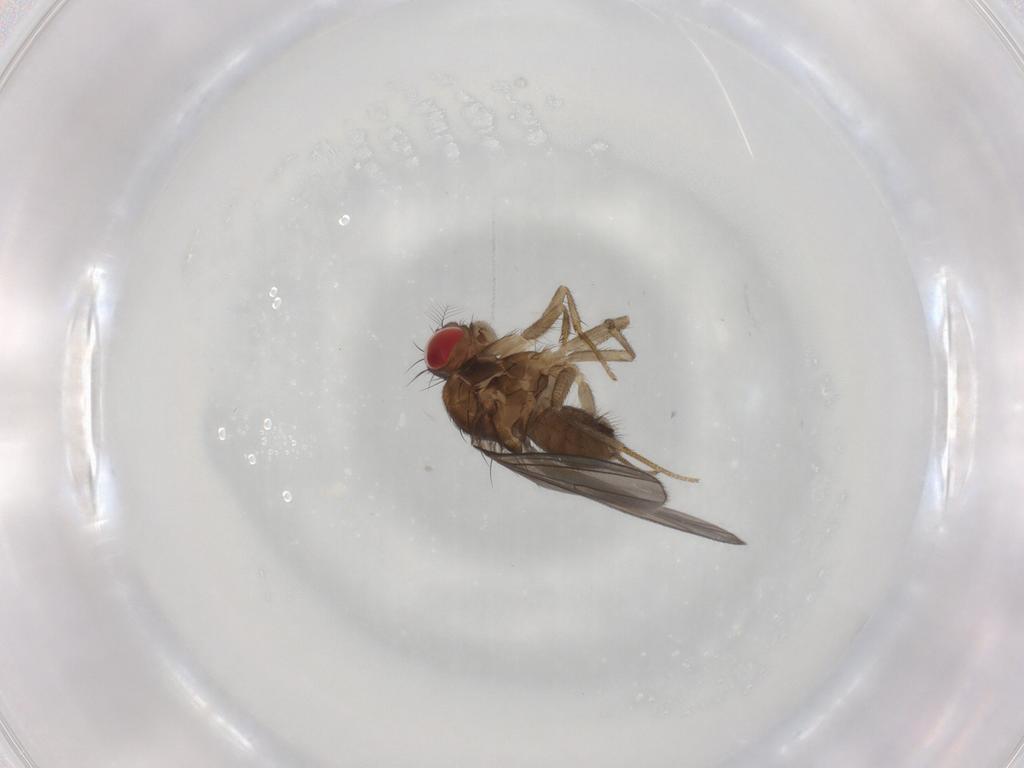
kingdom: Animalia
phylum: Arthropoda
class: Insecta
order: Diptera
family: Drosophilidae
